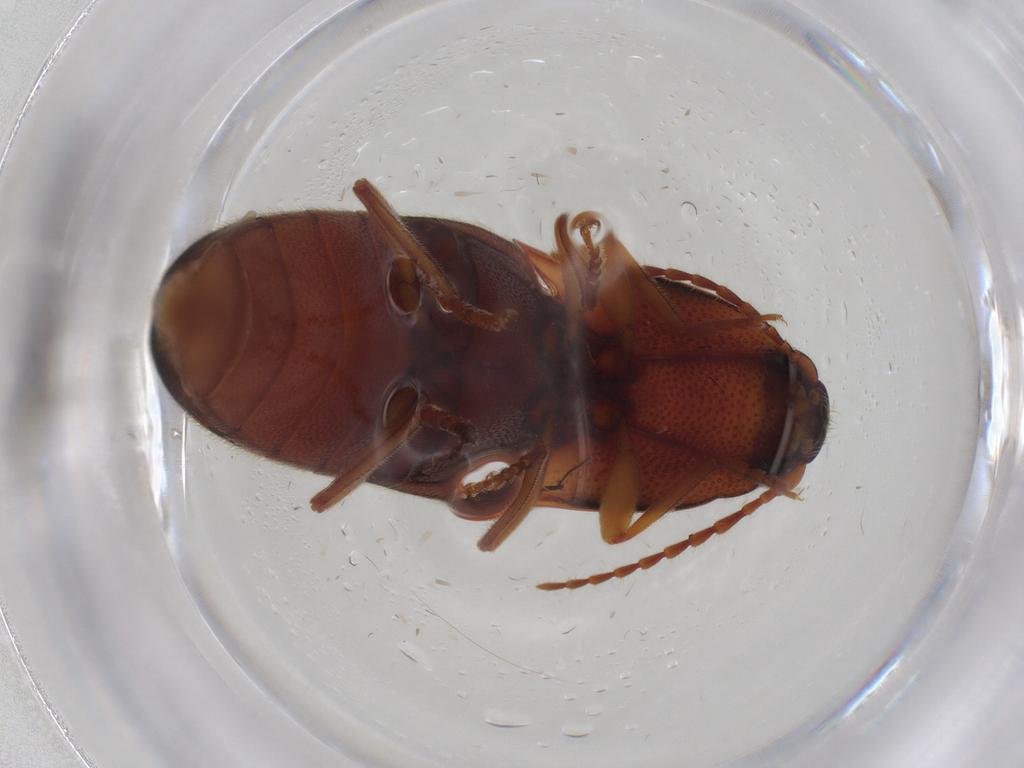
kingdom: Animalia
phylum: Arthropoda
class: Insecta
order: Coleoptera
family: Elateridae
